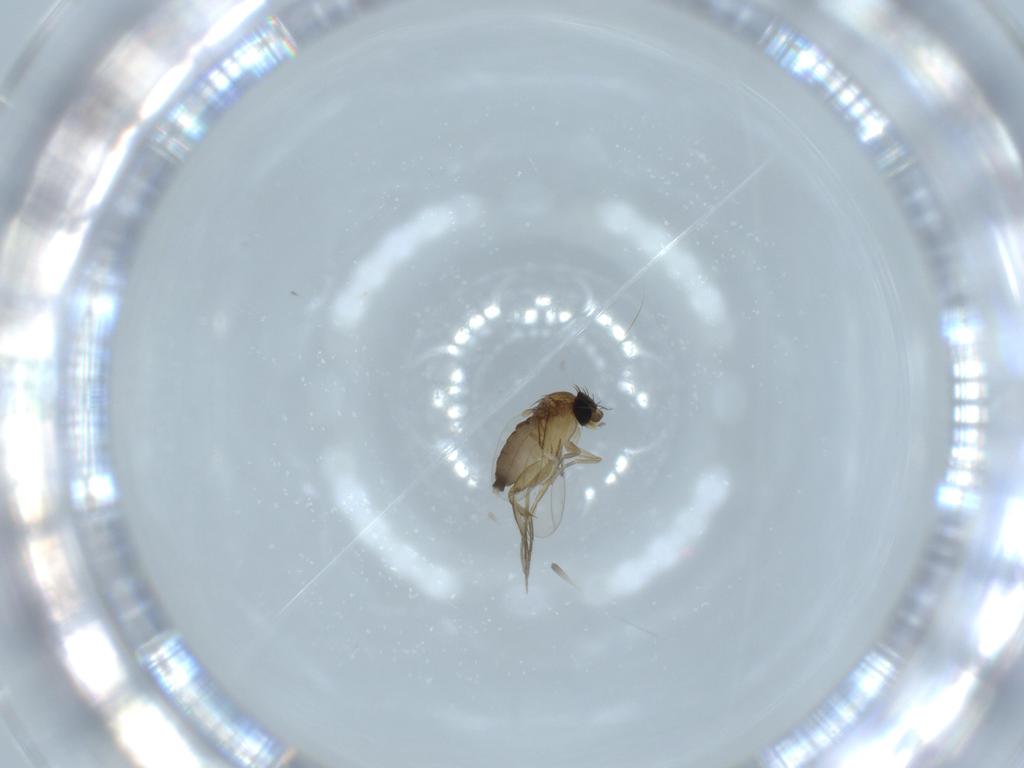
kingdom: Animalia
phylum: Arthropoda
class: Insecta
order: Diptera
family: Phoridae
